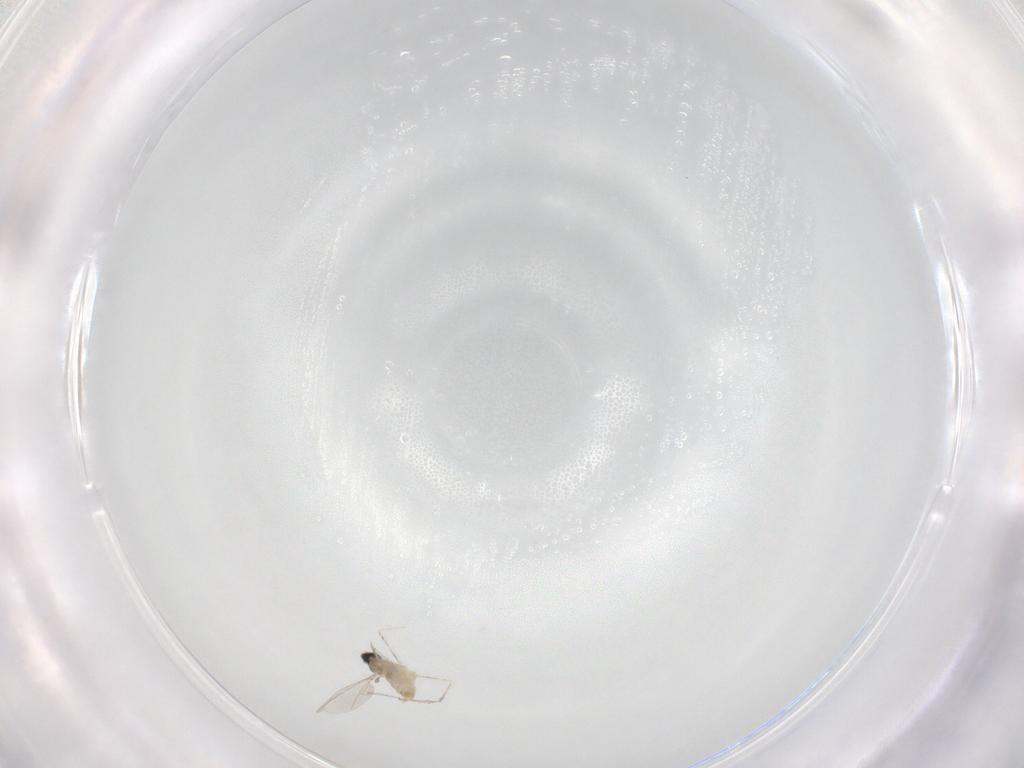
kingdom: Animalia
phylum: Arthropoda
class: Insecta
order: Diptera
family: Cecidomyiidae
